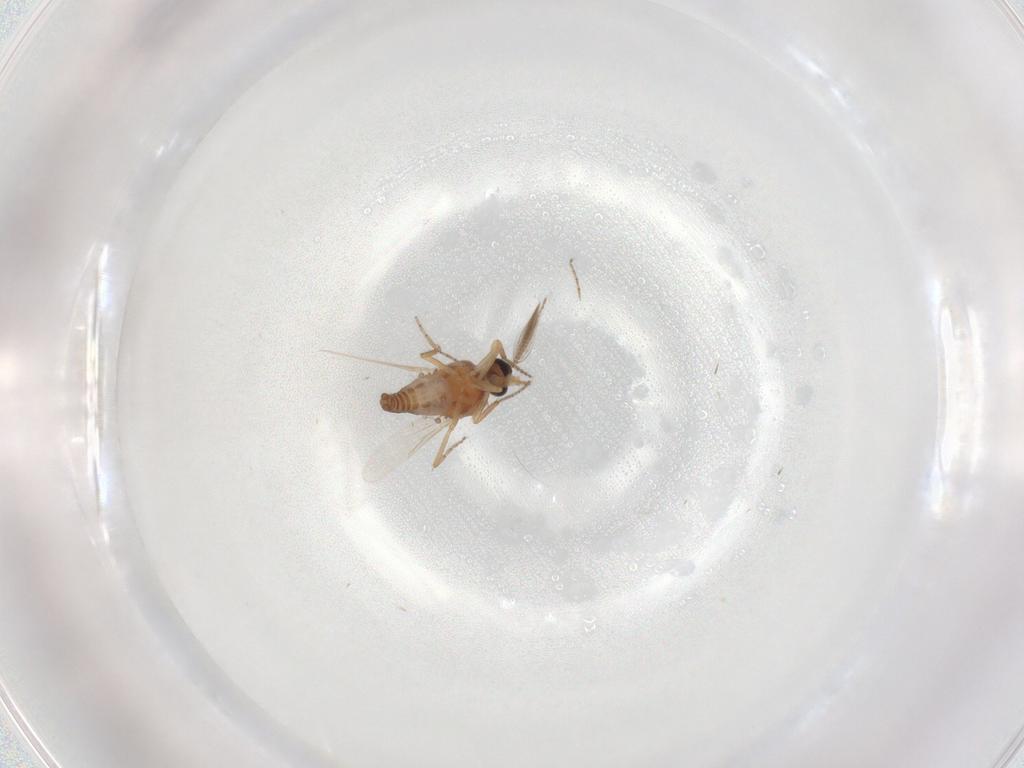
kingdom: Animalia
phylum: Arthropoda
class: Insecta
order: Diptera
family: Ceratopogonidae
